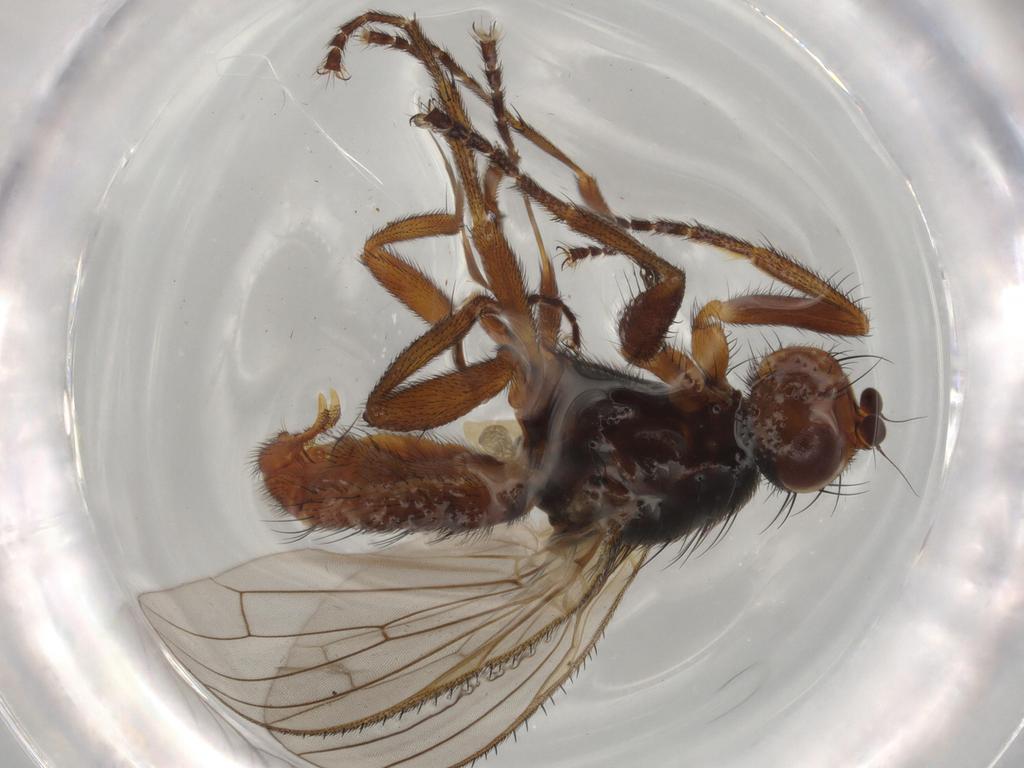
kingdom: Animalia
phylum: Arthropoda
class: Insecta
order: Diptera
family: Heleomyzidae
